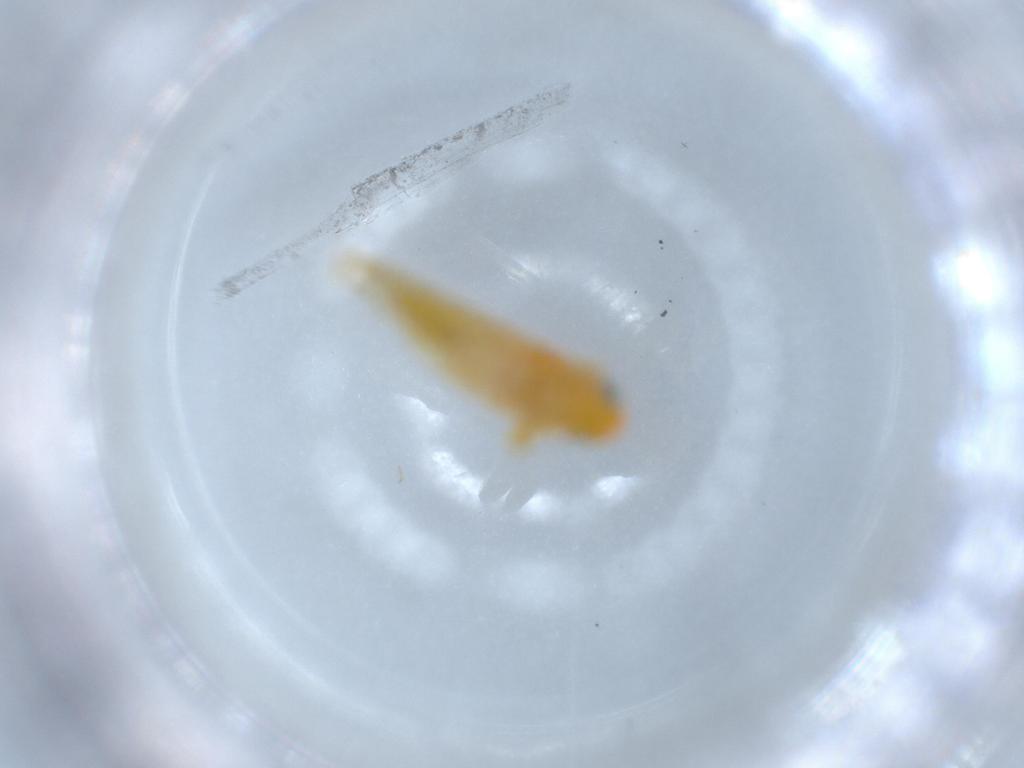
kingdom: Animalia
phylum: Arthropoda
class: Insecta
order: Hemiptera
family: Cicadellidae
